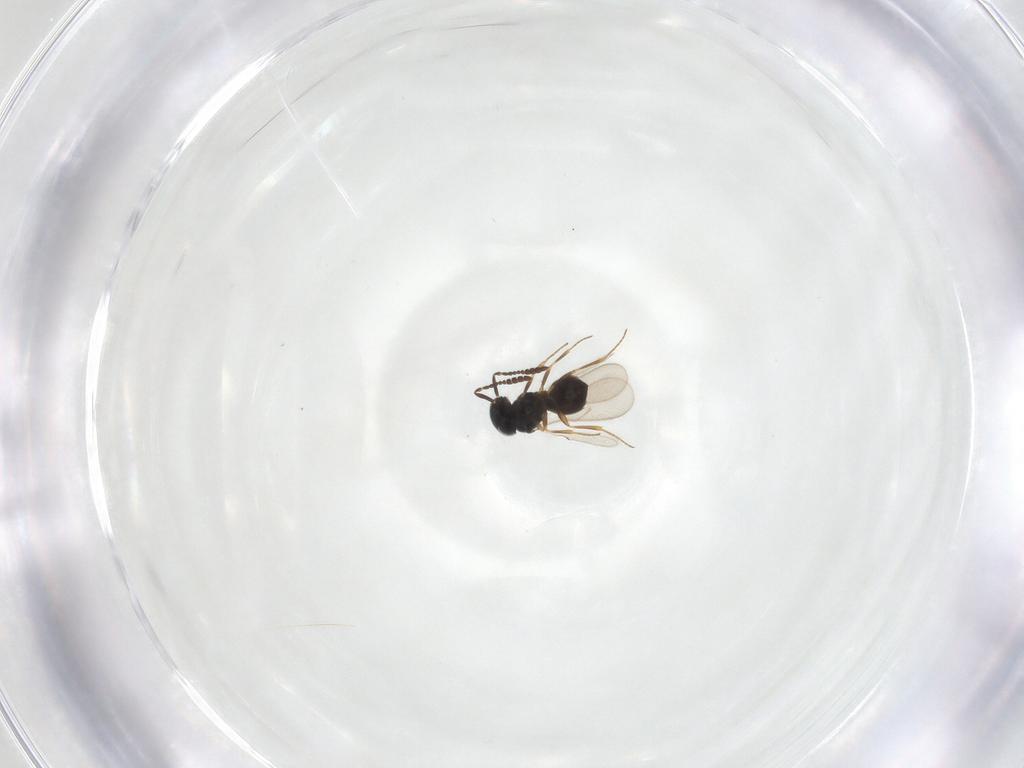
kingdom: Animalia
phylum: Arthropoda
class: Insecta
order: Hymenoptera
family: Scelionidae
